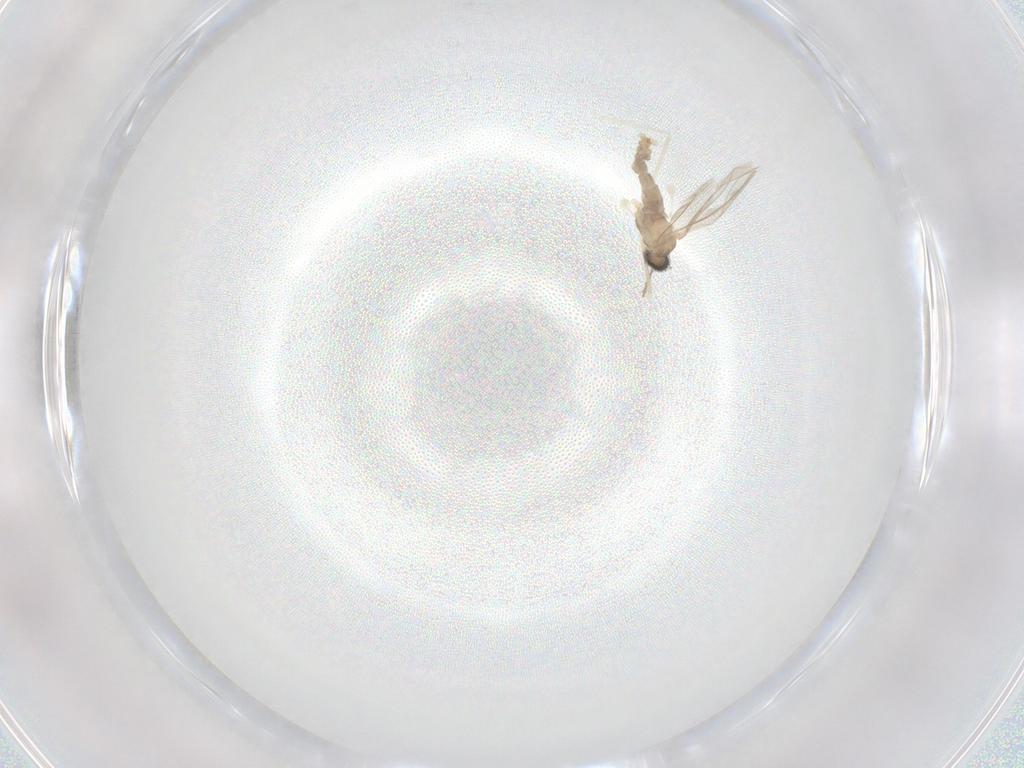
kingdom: Animalia
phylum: Arthropoda
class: Insecta
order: Diptera
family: Cecidomyiidae
